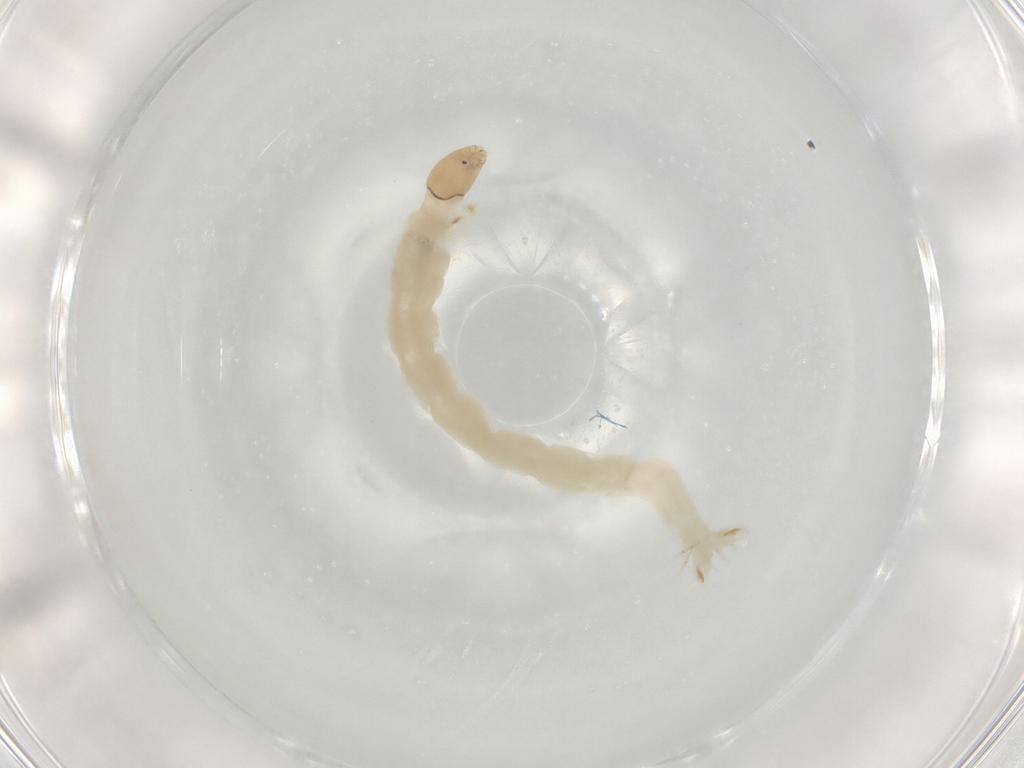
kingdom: Animalia
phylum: Arthropoda
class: Insecta
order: Diptera
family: Chironomidae
